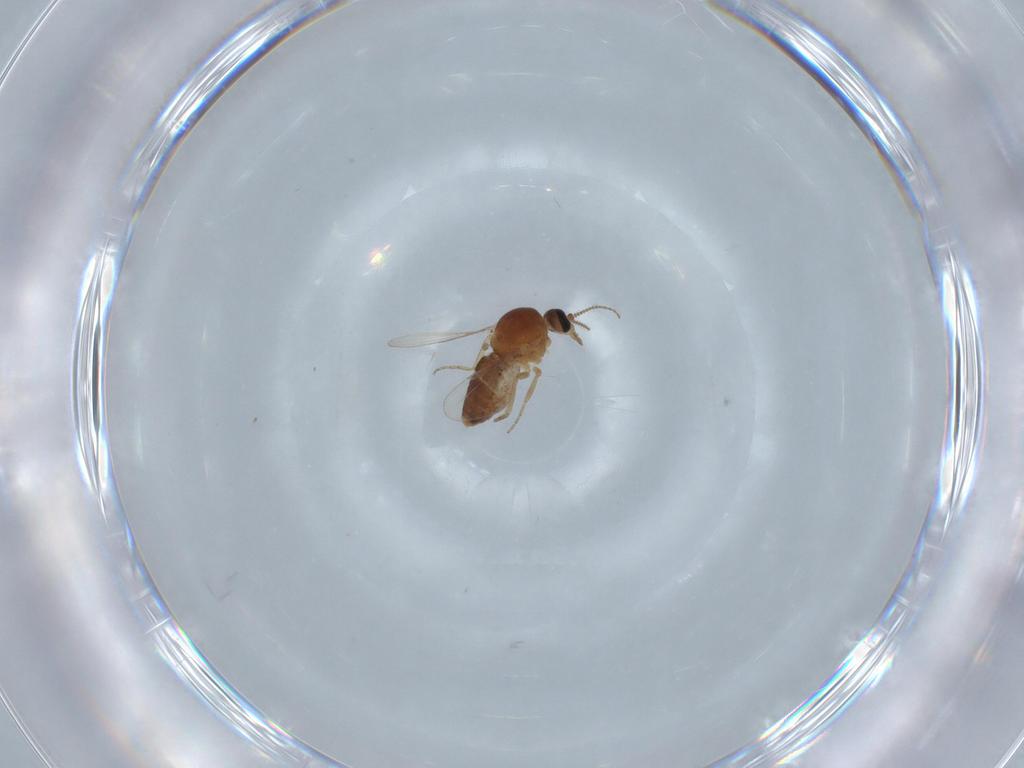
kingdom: Animalia
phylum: Arthropoda
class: Insecta
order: Diptera
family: Ceratopogonidae
